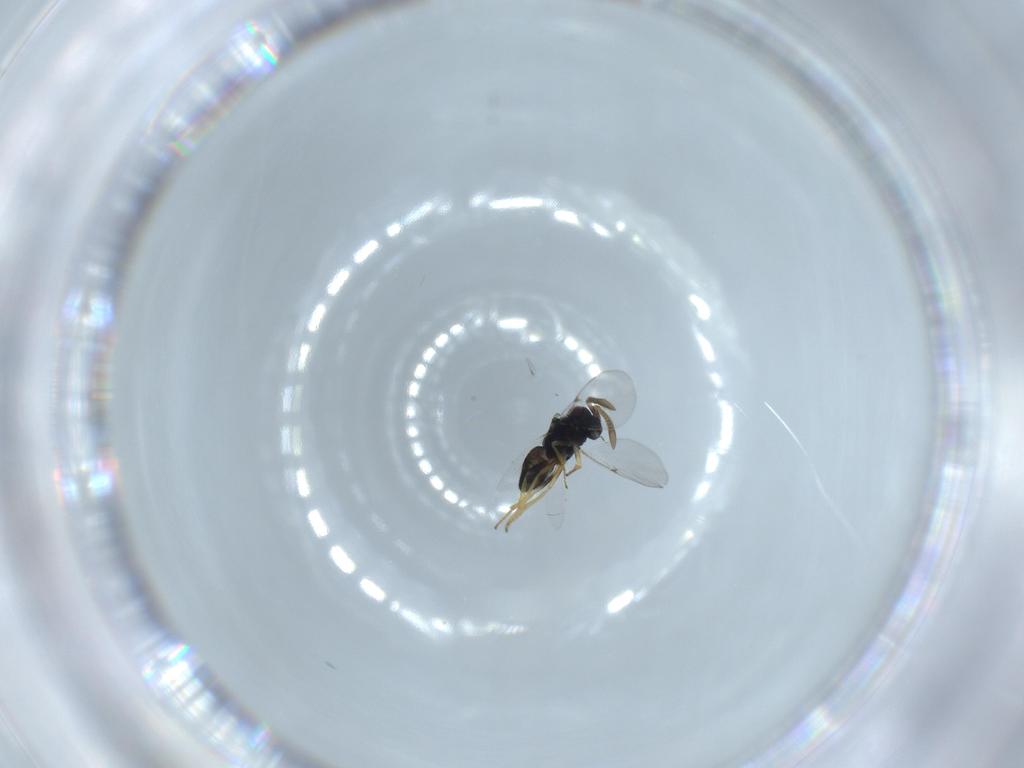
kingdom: Animalia
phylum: Arthropoda
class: Insecta
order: Hymenoptera
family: Encyrtidae
